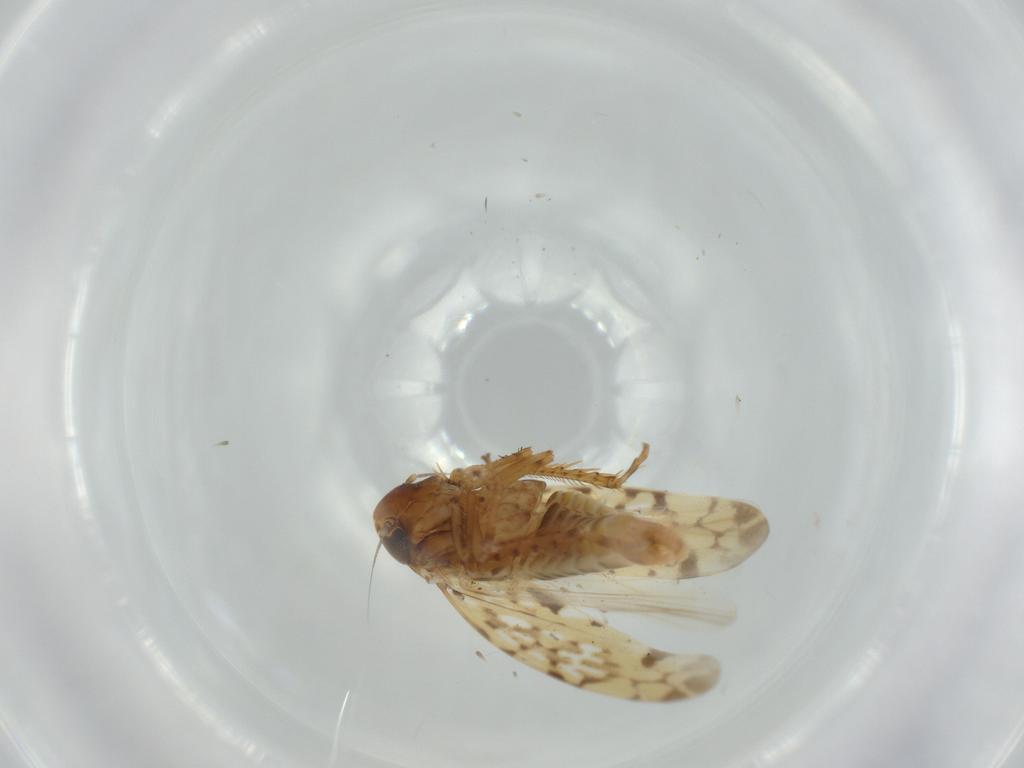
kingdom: Animalia
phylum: Arthropoda
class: Insecta
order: Hemiptera
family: Cicadellidae
